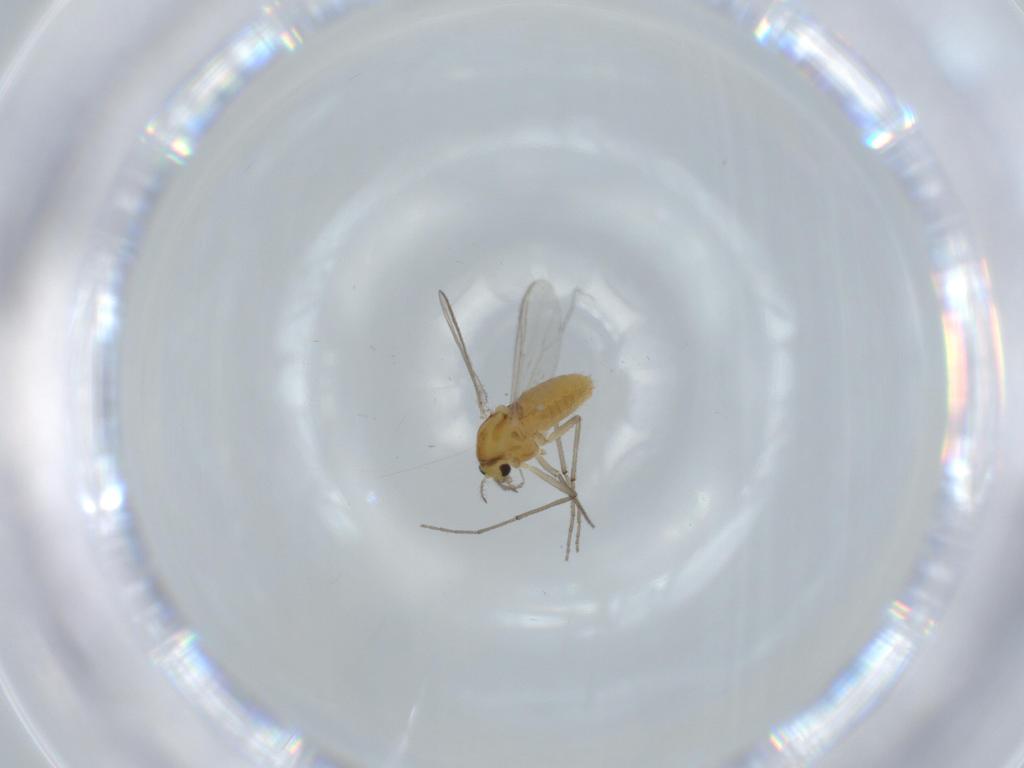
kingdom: Animalia
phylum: Arthropoda
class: Insecta
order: Diptera
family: Chironomidae
